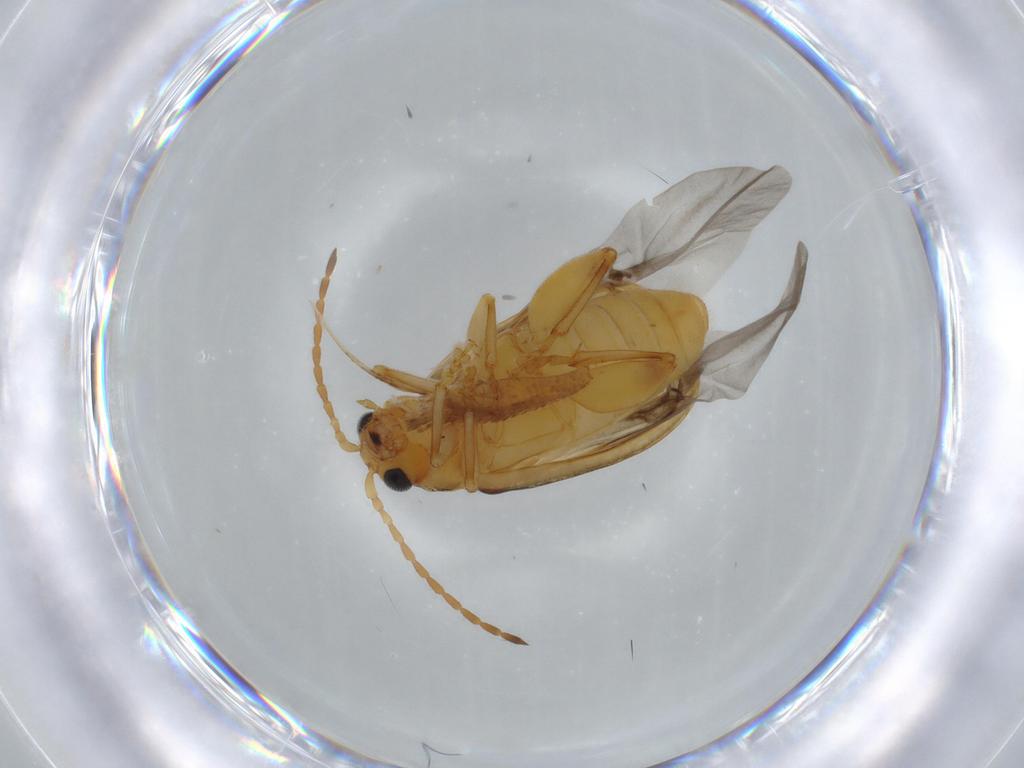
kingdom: Animalia
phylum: Arthropoda
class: Insecta
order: Coleoptera
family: Chrysomelidae
